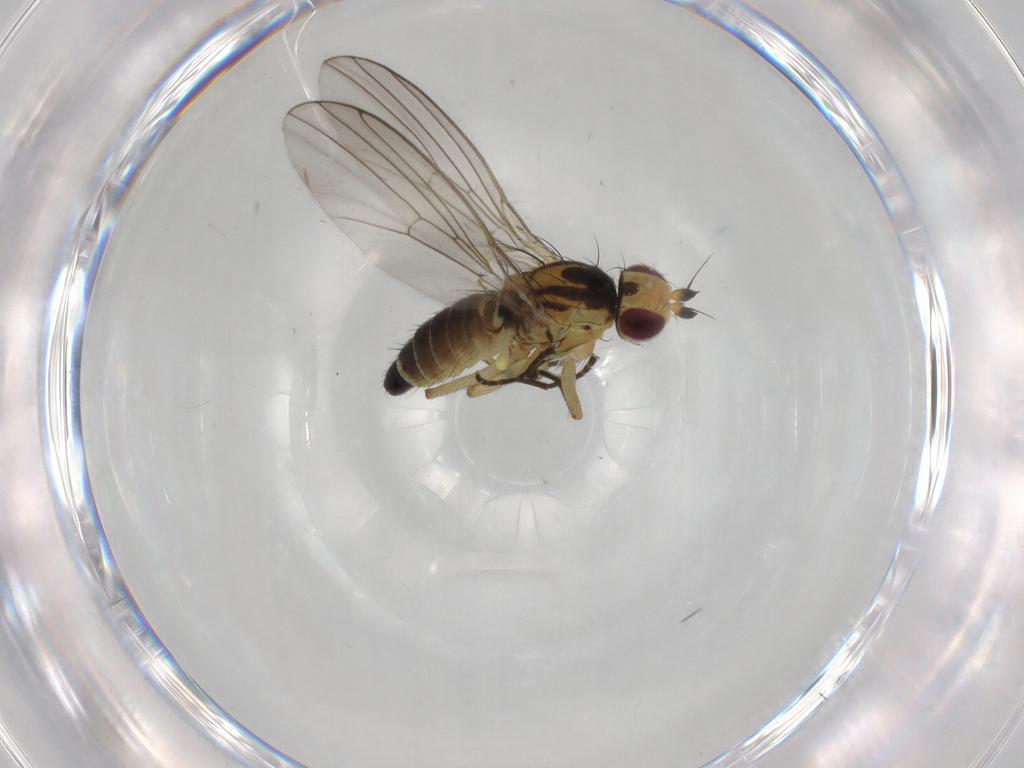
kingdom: Animalia
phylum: Arthropoda
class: Insecta
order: Diptera
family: Agromyzidae
